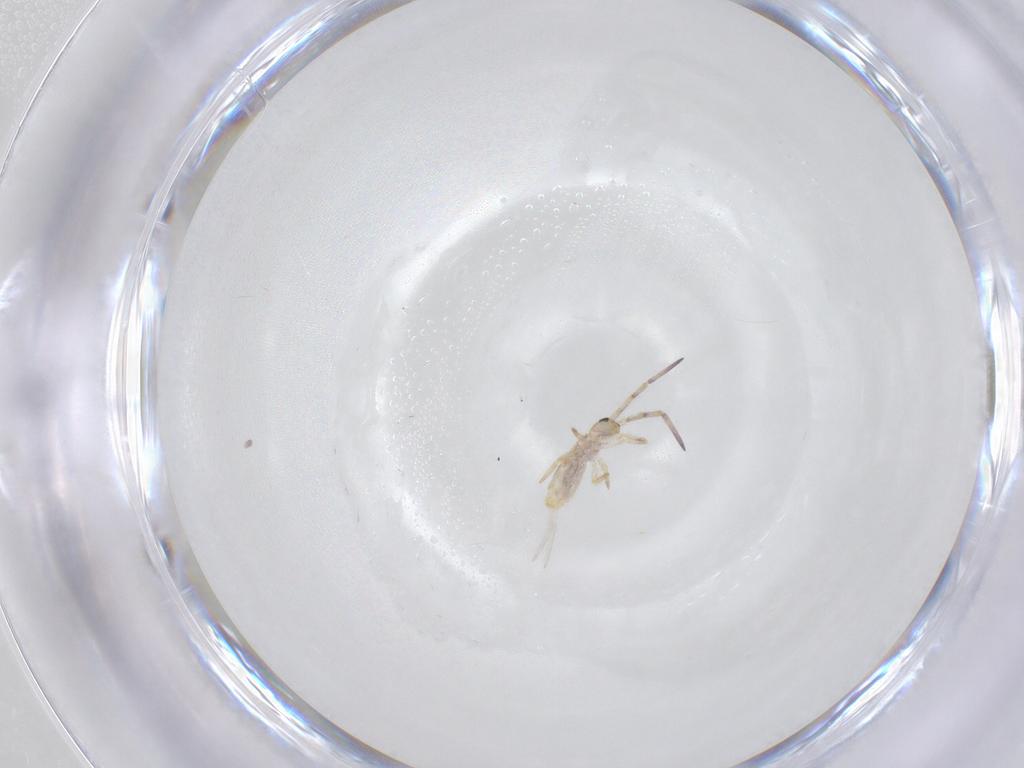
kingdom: Animalia
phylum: Arthropoda
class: Collembola
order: Entomobryomorpha
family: Entomobryidae
